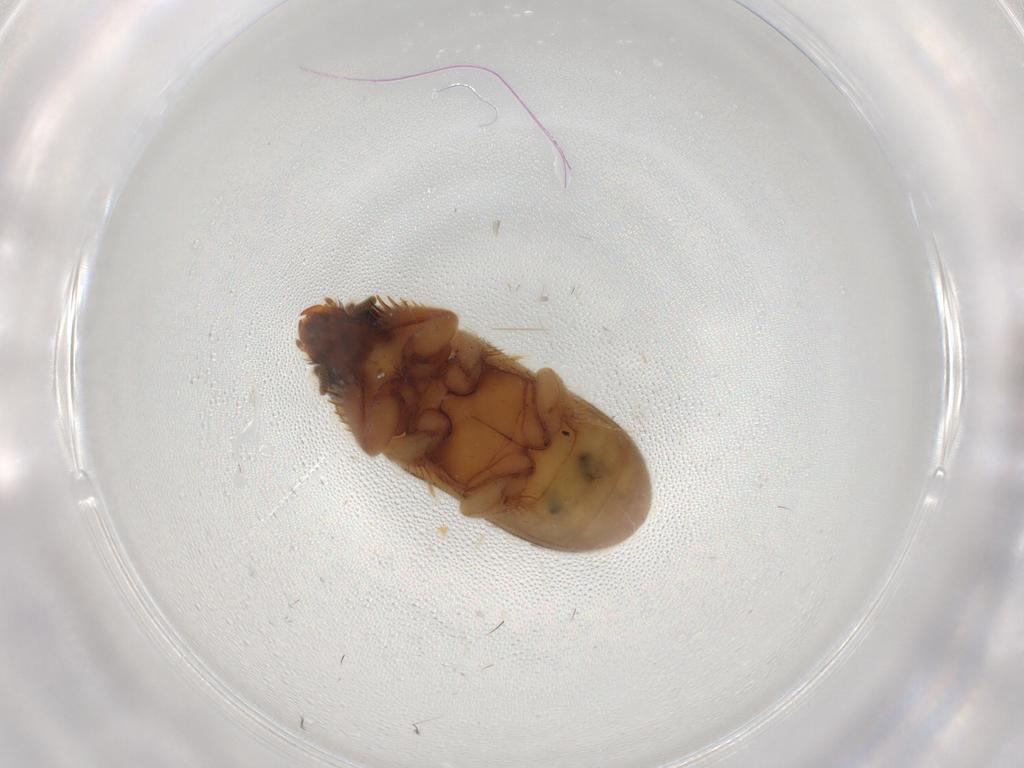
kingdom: Animalia
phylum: Arthropoda
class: Insecta
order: Coleoptera
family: Heteroceridae
